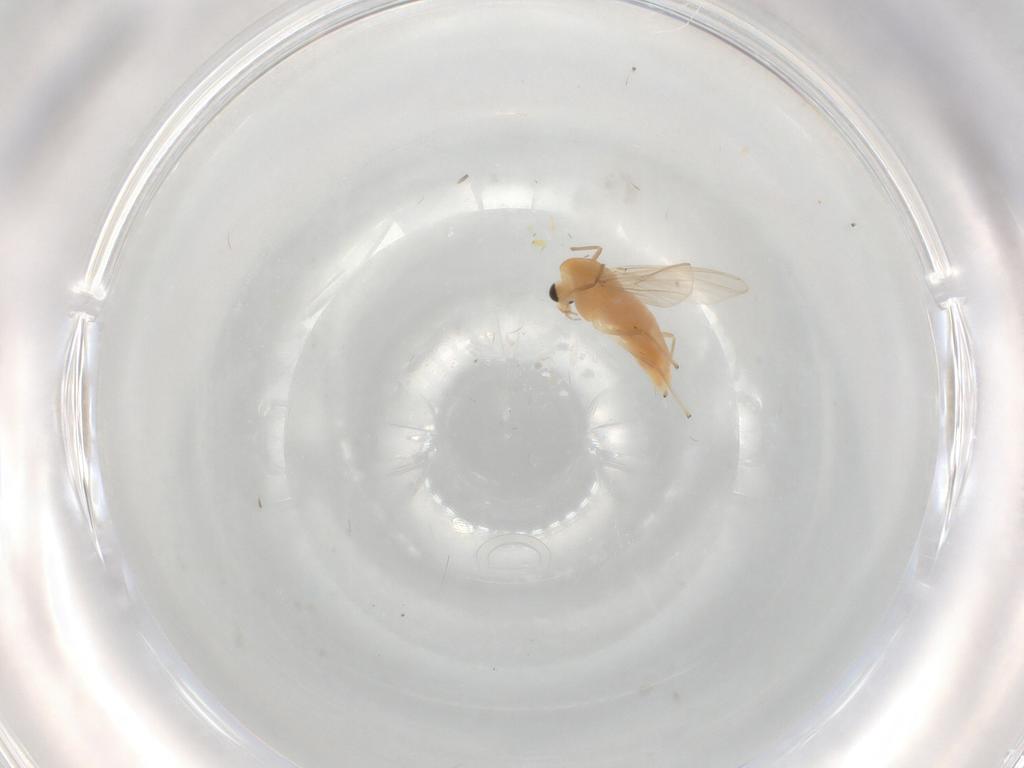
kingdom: Animalia
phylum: Arthropoda
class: Insecta
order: Diptera
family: Chironomidae
